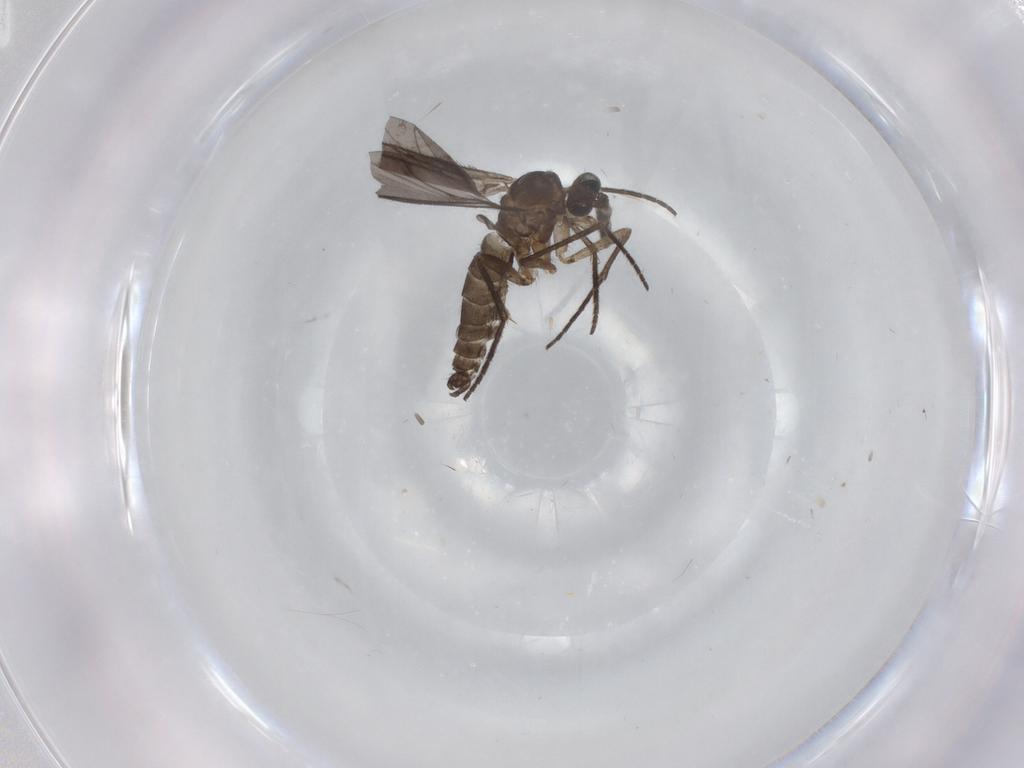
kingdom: Animalia
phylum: Arthropoda
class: Insecta
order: Diptera
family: Sciaridae
